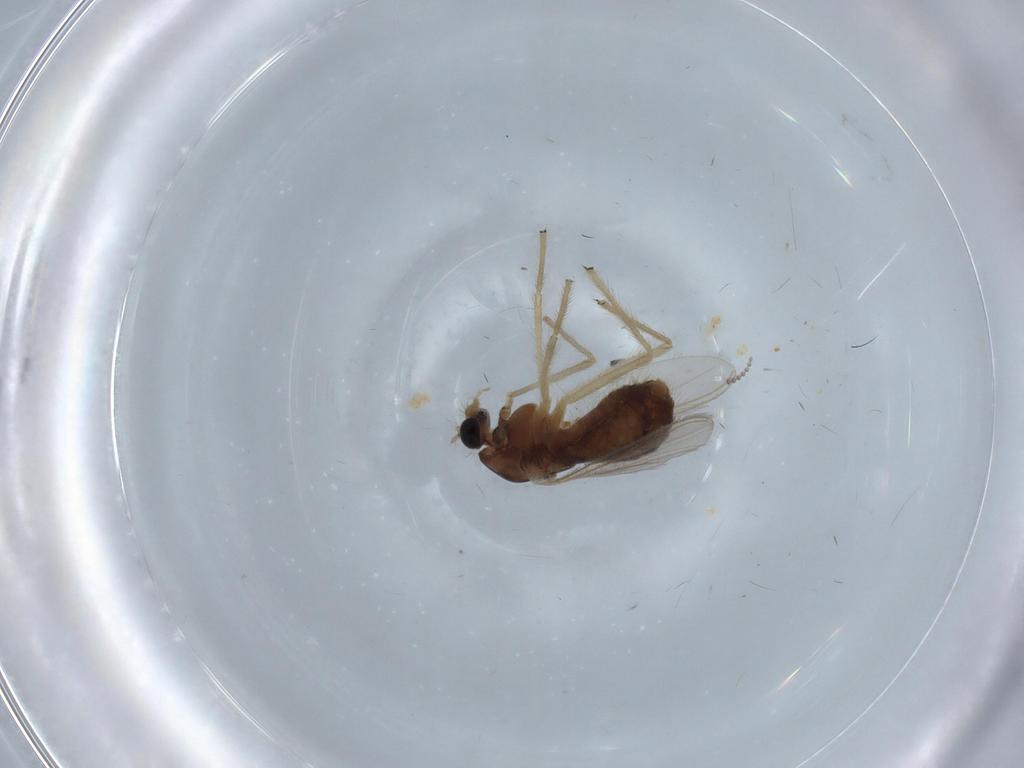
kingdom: Animalia
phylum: Arthropoda
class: Insecta
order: Diptera
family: Chironomidae
